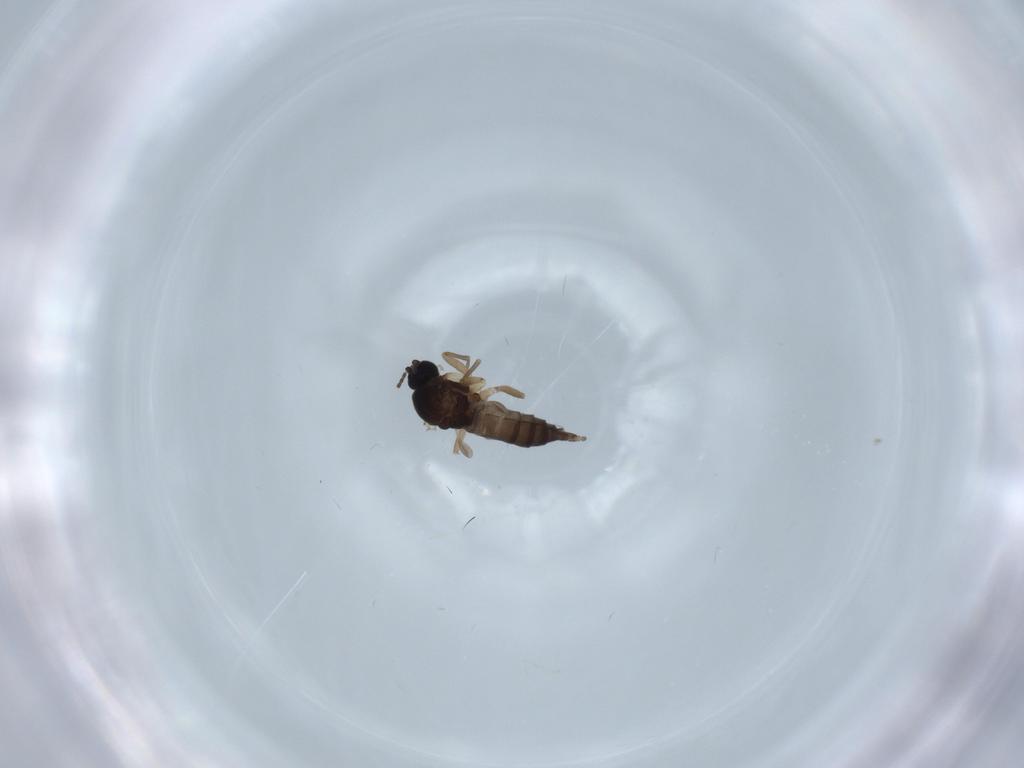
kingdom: Animalia
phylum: Arthropoda
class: Insecta
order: Diptera
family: Sciaridae
